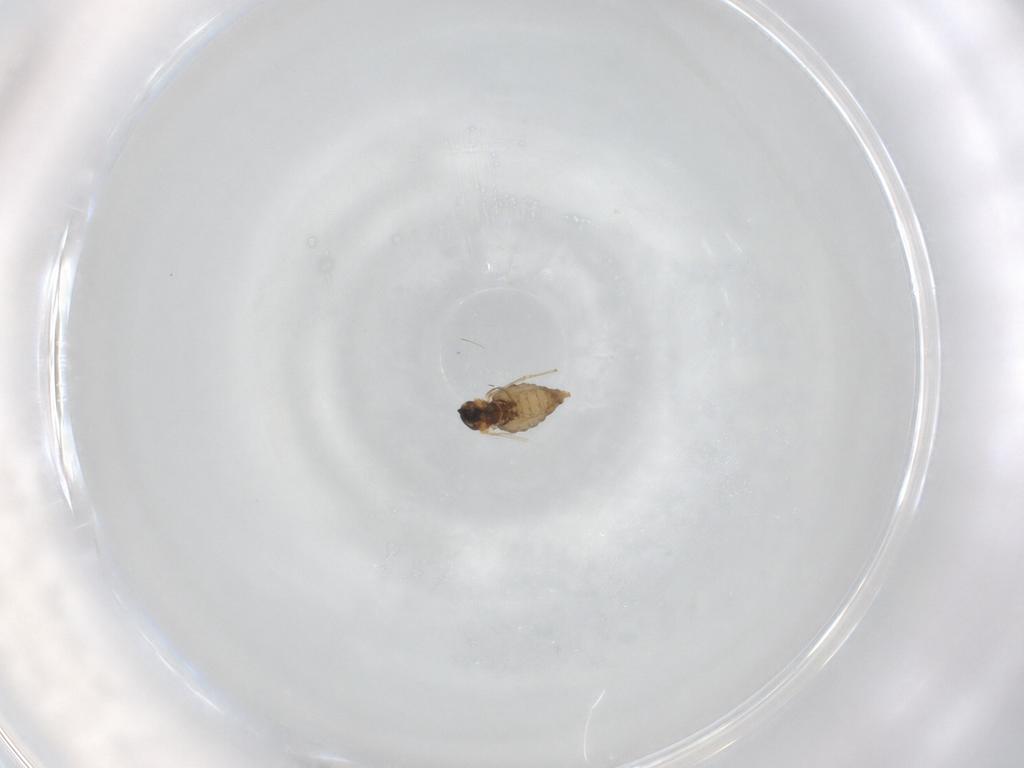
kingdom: Animalia
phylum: Arthropoda
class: Insecta
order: Diptera
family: Cecidomyiidae
